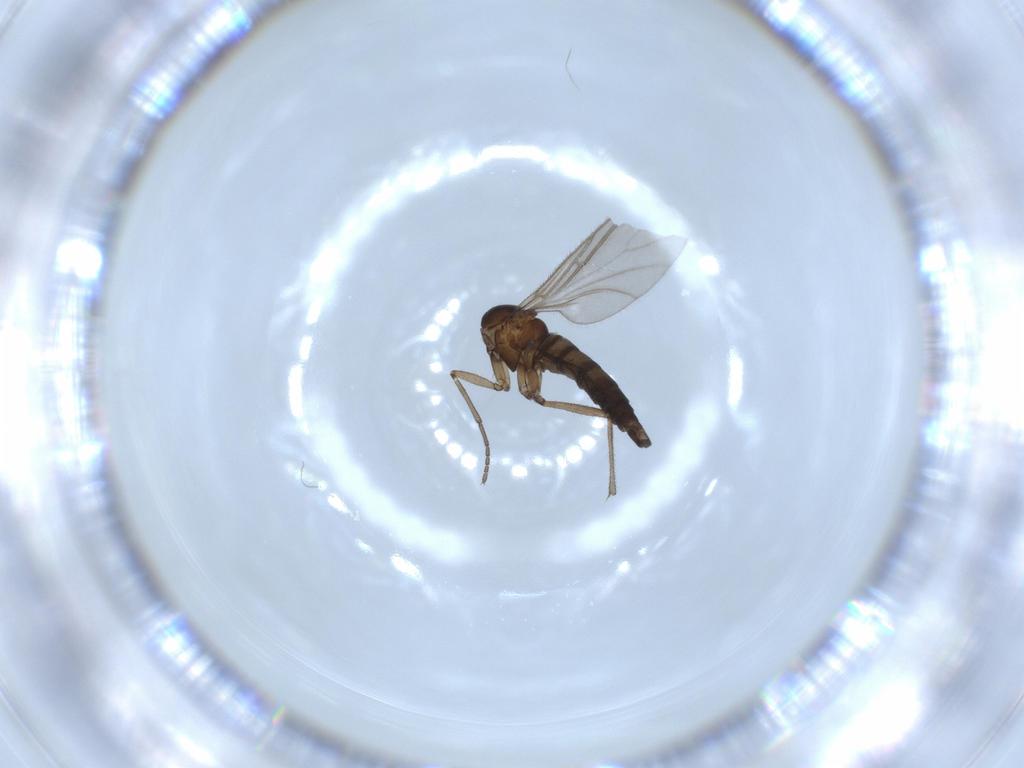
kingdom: Animalia
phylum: Arthropoda
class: Insecta
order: Diptera
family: Sciaridae
